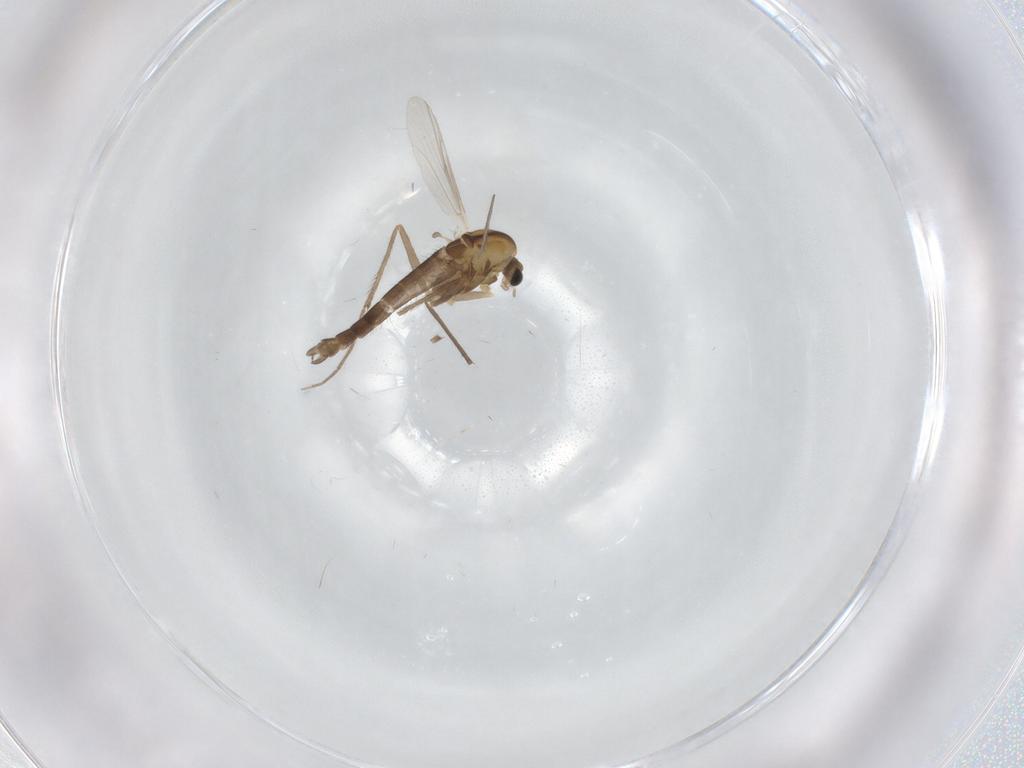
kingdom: Animalia
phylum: Arthropoda
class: Insecta
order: Diptera
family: Chironomidae
